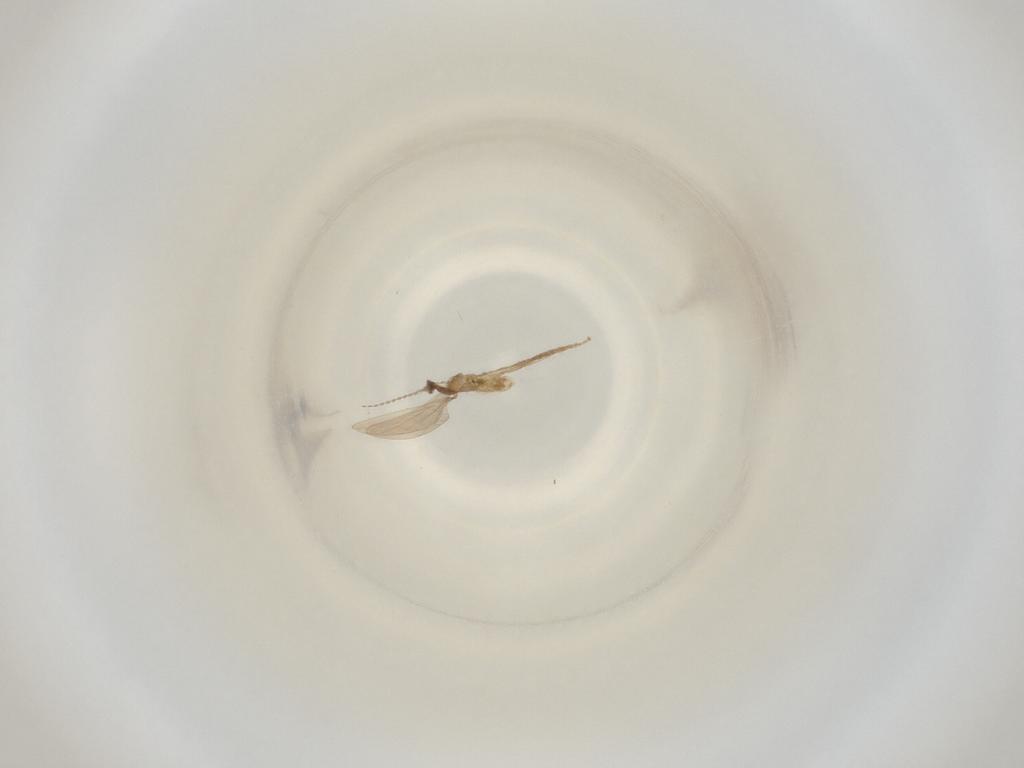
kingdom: Animalia
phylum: Arthropoda
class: Insecta
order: Diptera
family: Cecidomyiidae
